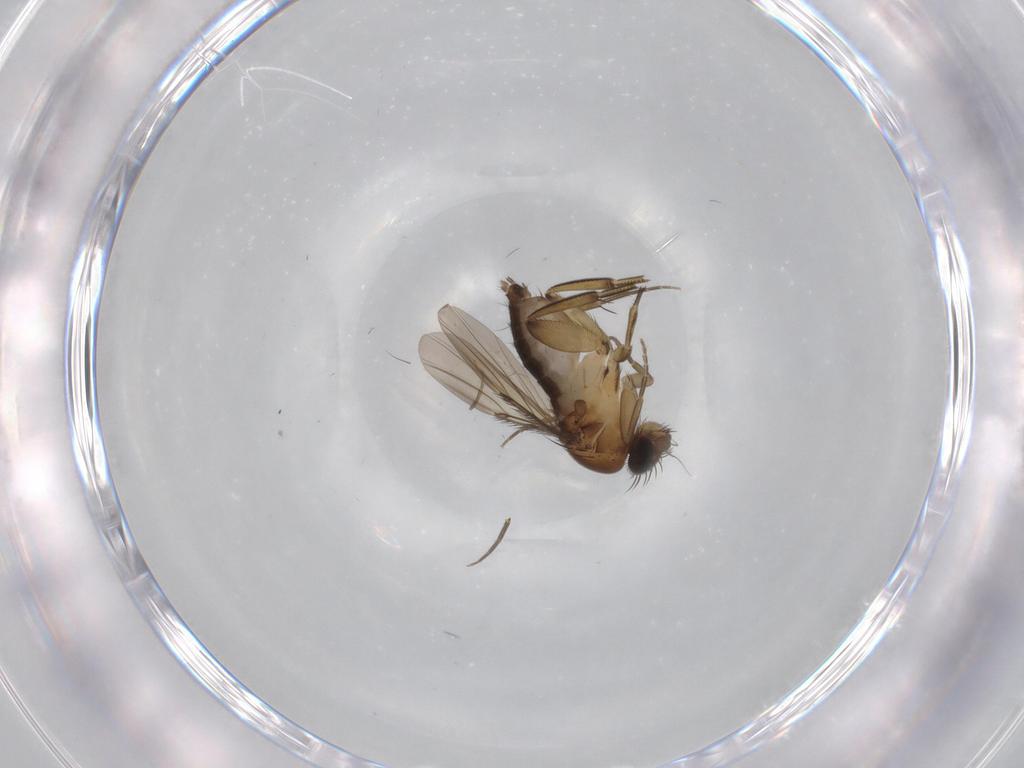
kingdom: Animalia
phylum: Arthropoda
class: Insecta
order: Diptera
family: Phoridae
